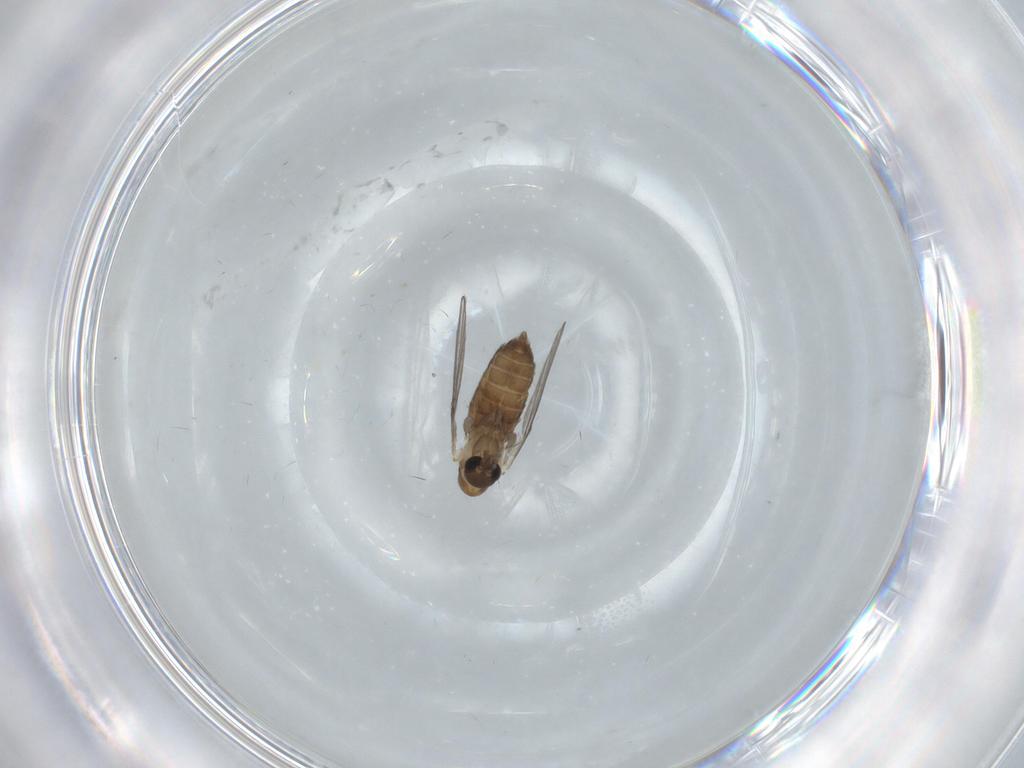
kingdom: Animalia
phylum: Arthropoda
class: Insecta
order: Diptera
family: Psychodidae
